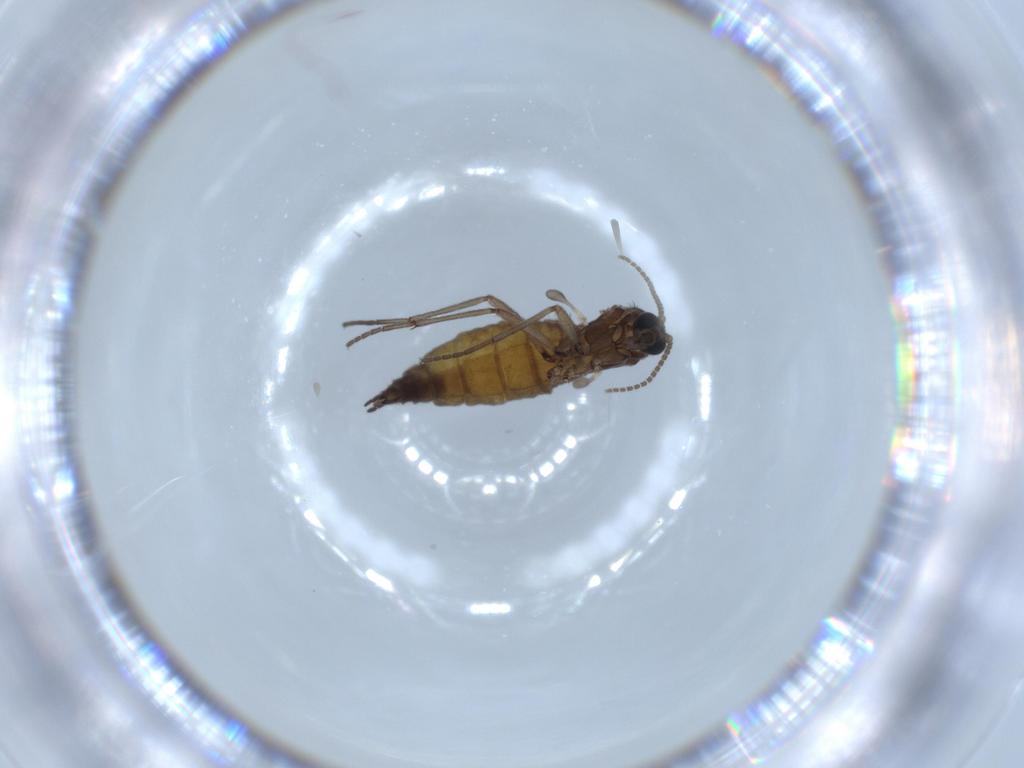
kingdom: Animalia
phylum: Arthropoda
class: Insecta
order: Diptera
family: Sciaridae
